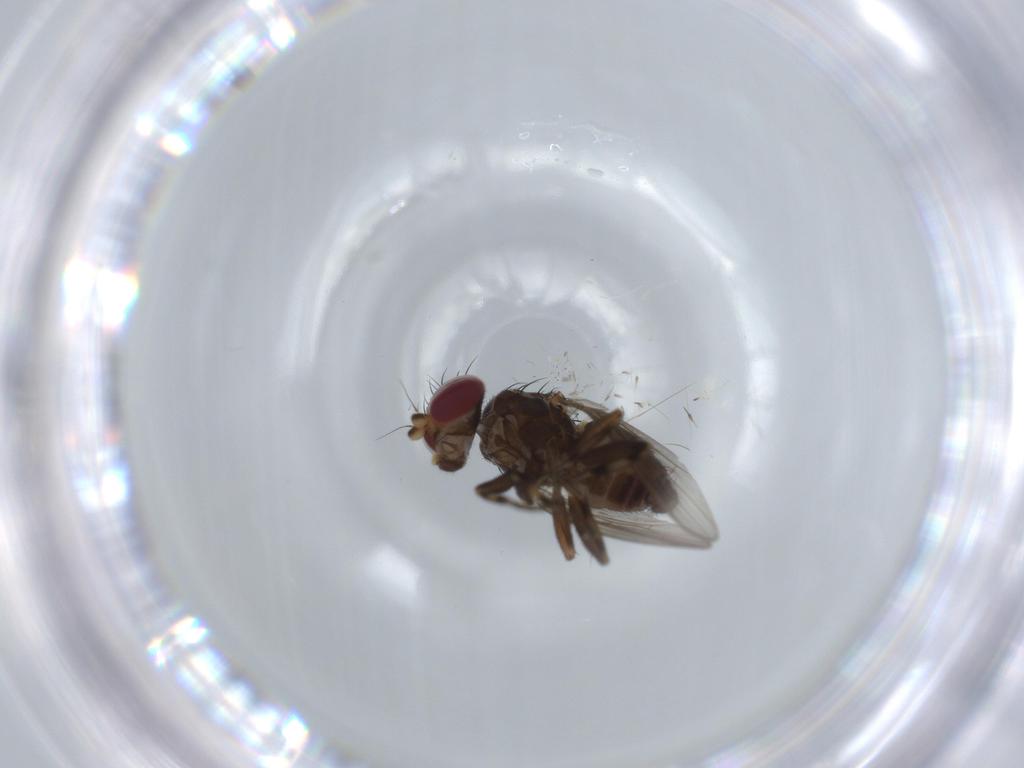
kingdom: Animalia
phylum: Arthropoda
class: Insecta
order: Diptera
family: Heleomyzidae
